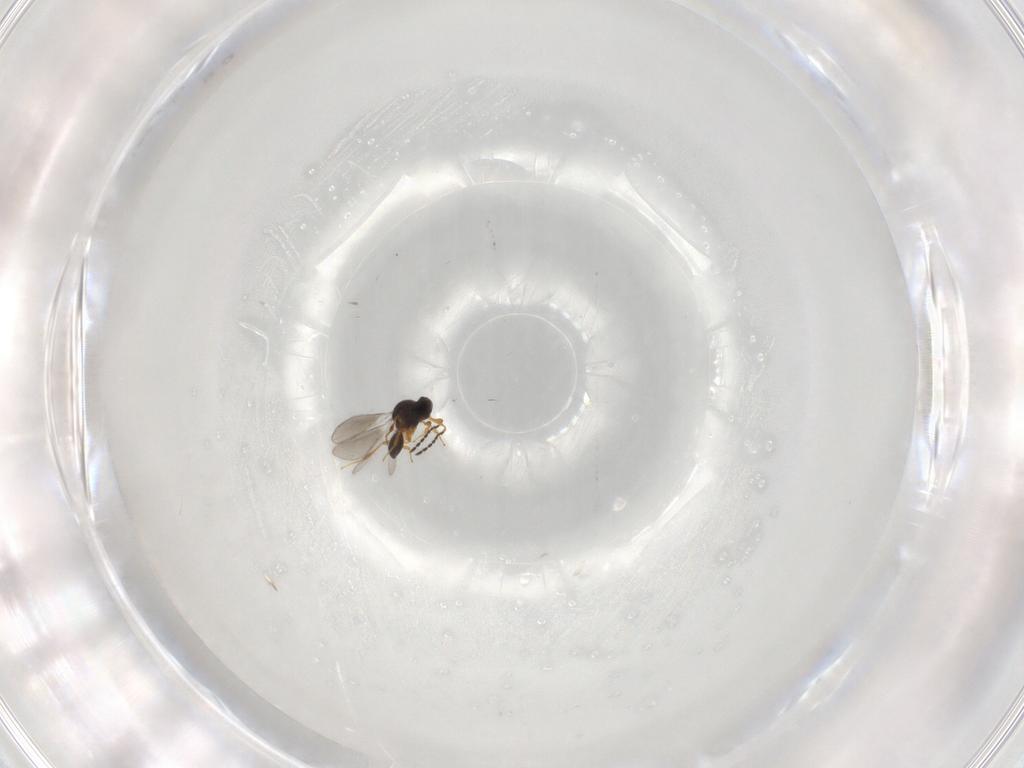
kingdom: Animalia
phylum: Arthropoda
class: Insecta
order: Hymenoptera
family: Platygastridae
